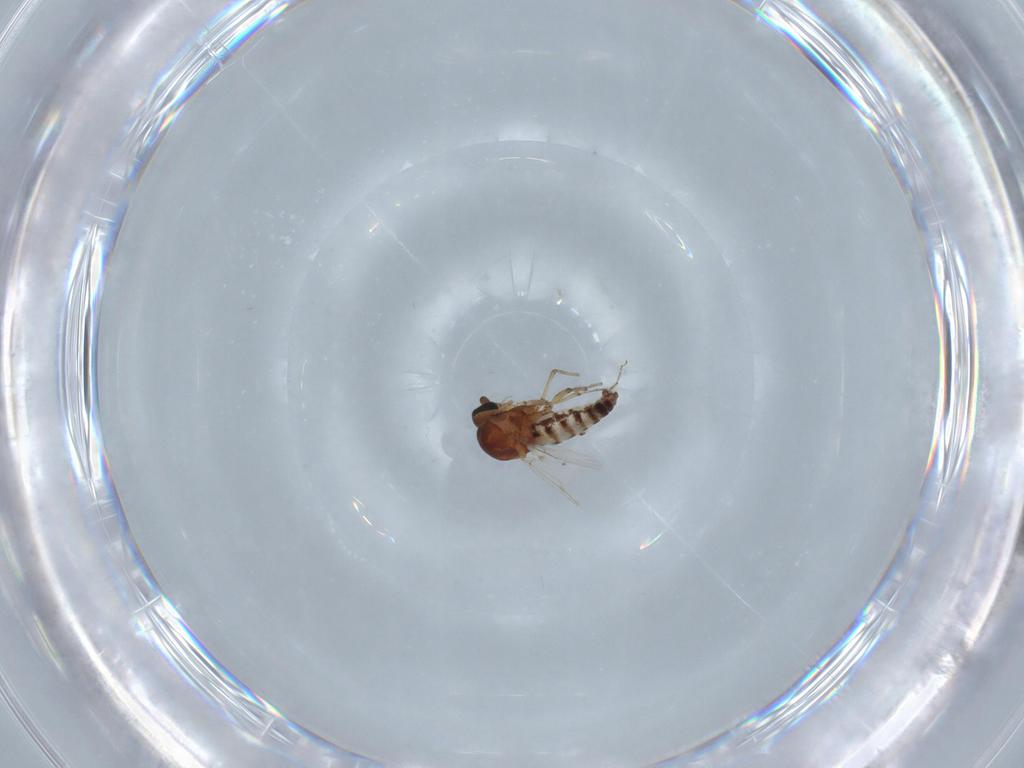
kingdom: Animalia
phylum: Arthropoda
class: Insecta
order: Diptera
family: Ceratopogonidae
